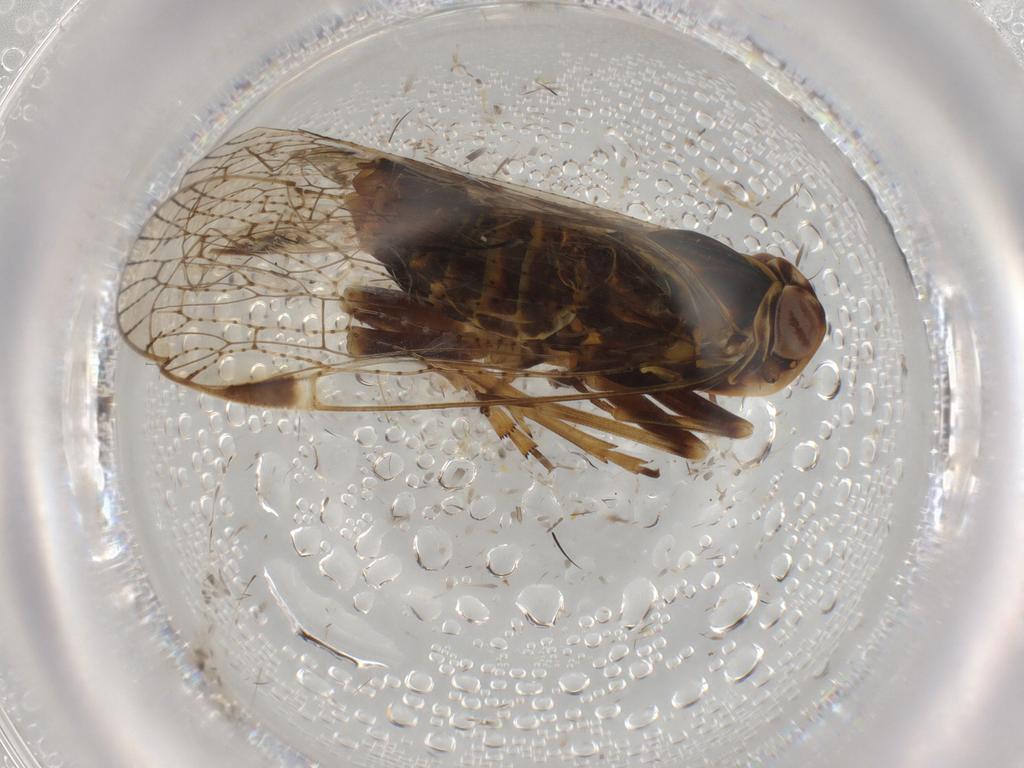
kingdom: Animalia
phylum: Arthropoda
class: Insecta
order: Hemiptera
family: Cixiidae
